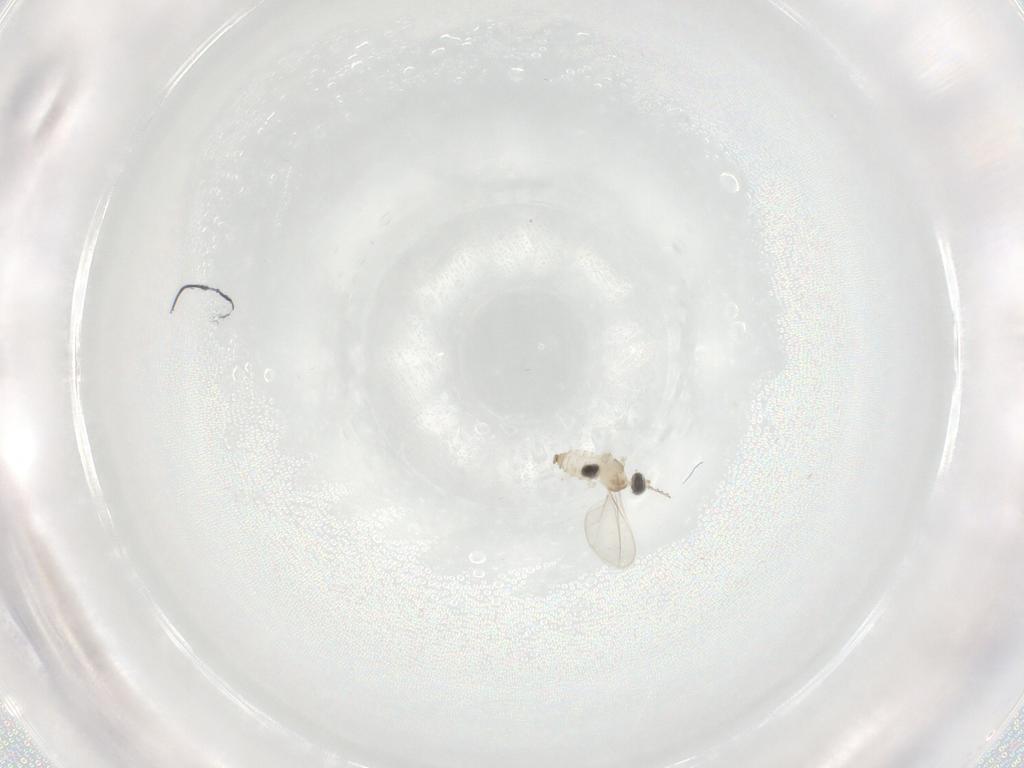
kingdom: Animalia
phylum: Arthropoda
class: Insecta
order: Diptera
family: Cecidomyiidae
